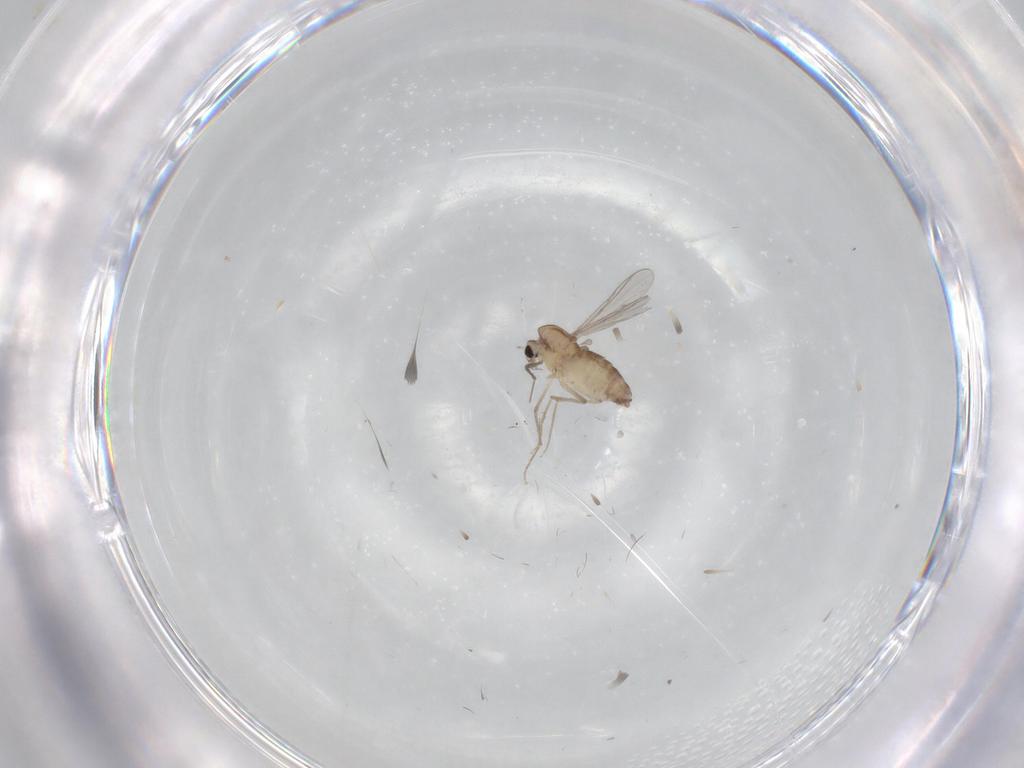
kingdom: Animalia
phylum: Arthropoda
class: Insecta
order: Diptera
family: Chironomidae
